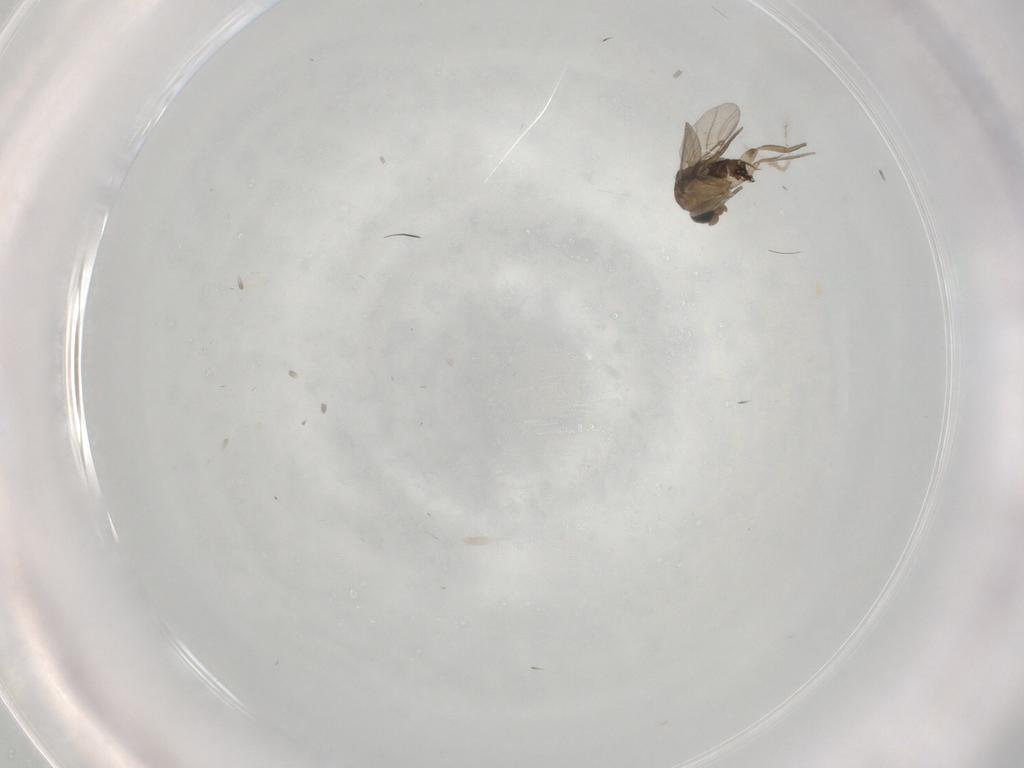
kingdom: Animalia
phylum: Arthropoda
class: Insecta
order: Diptera
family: Phoridae
